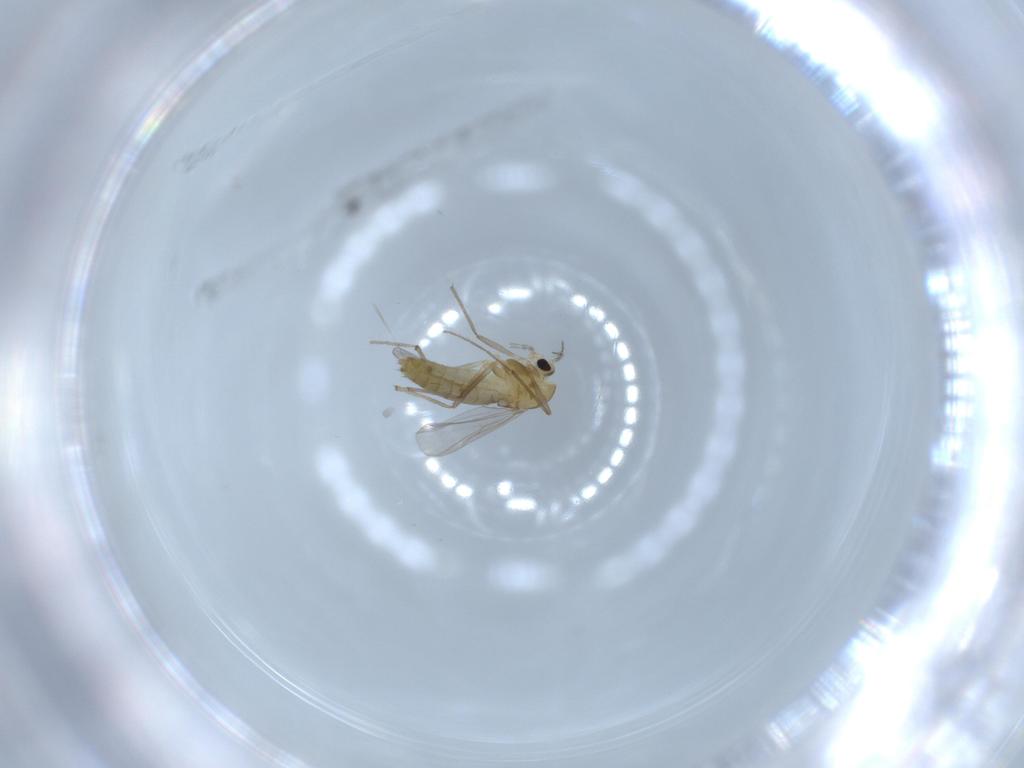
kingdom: Animalia
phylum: Arthropoda
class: Insecta
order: Diptera
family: Chironomidae
